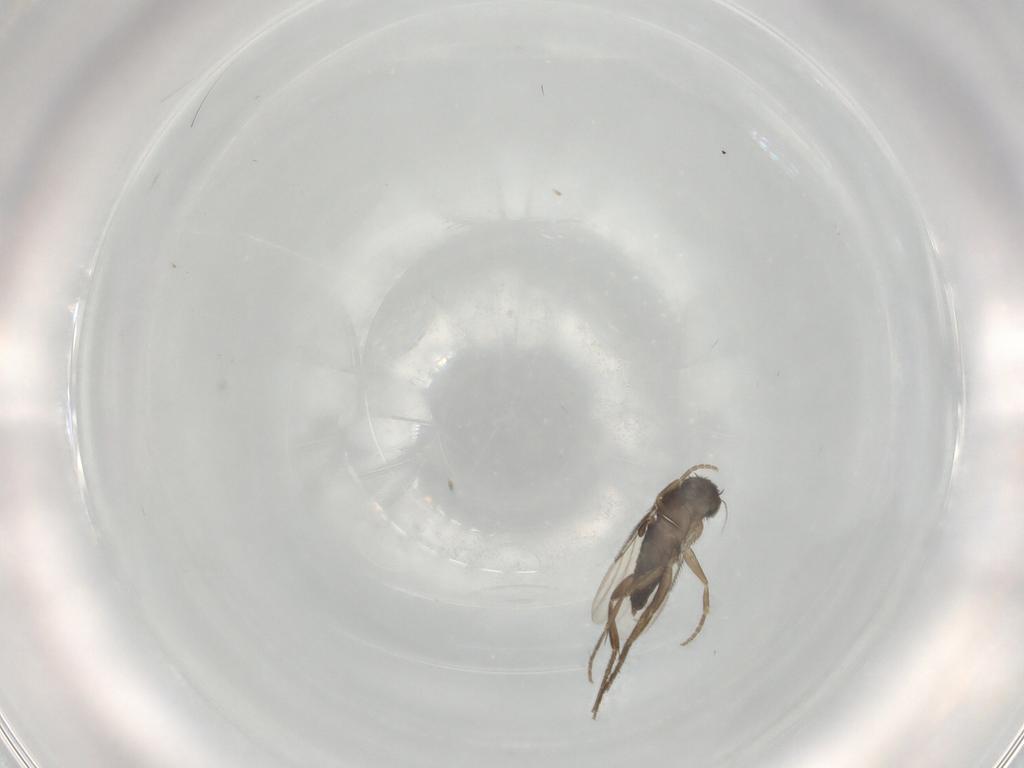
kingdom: Animalia
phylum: Arthropoda
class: Insecta
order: Diptera
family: Phoridae
